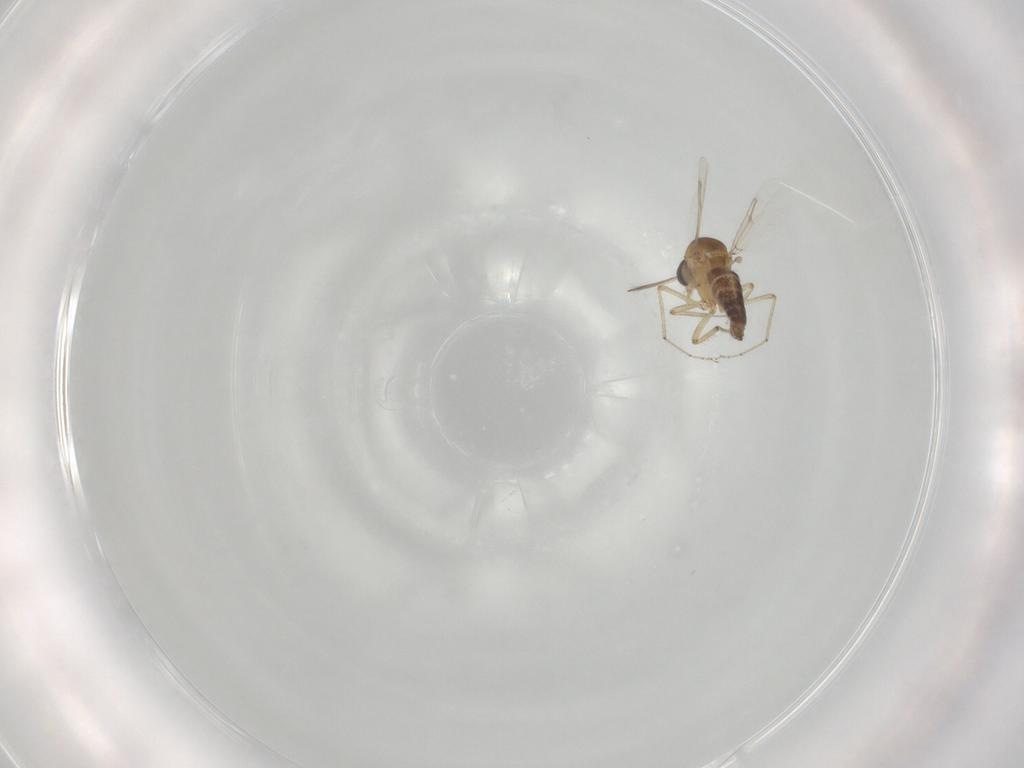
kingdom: Animalia
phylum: Arthropoda
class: Insecta
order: Diptera
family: Ceratopogonidae
